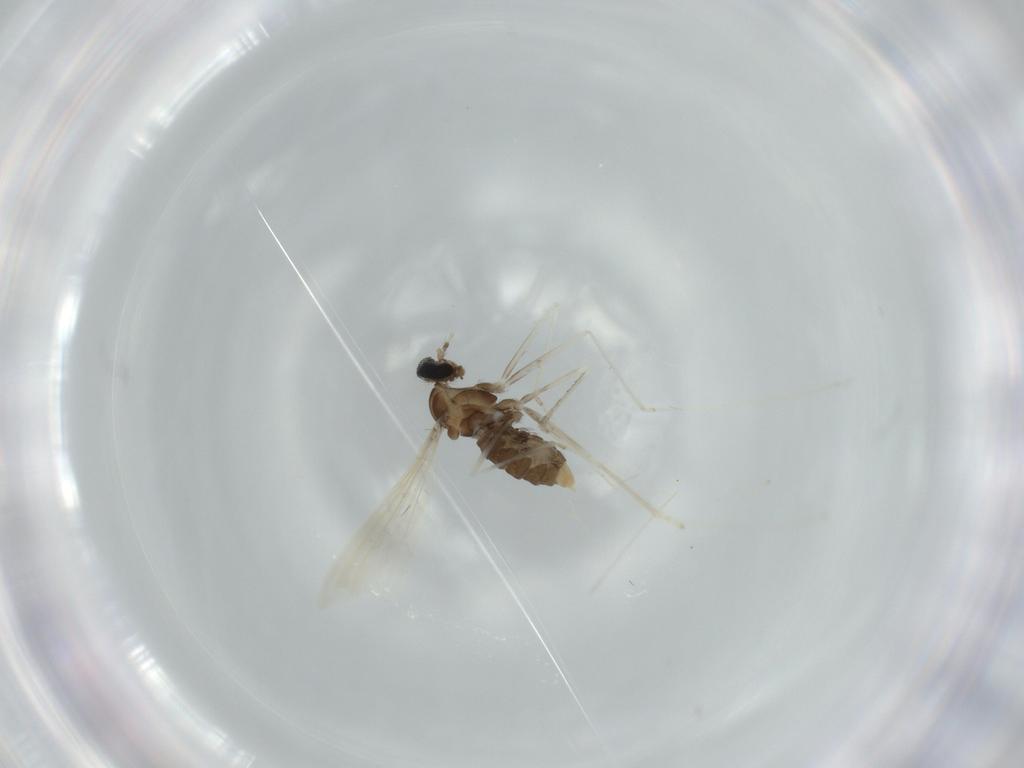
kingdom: Animalia
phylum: Arthropoda
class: Insecta
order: Diptera
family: Cecidomyiidae
